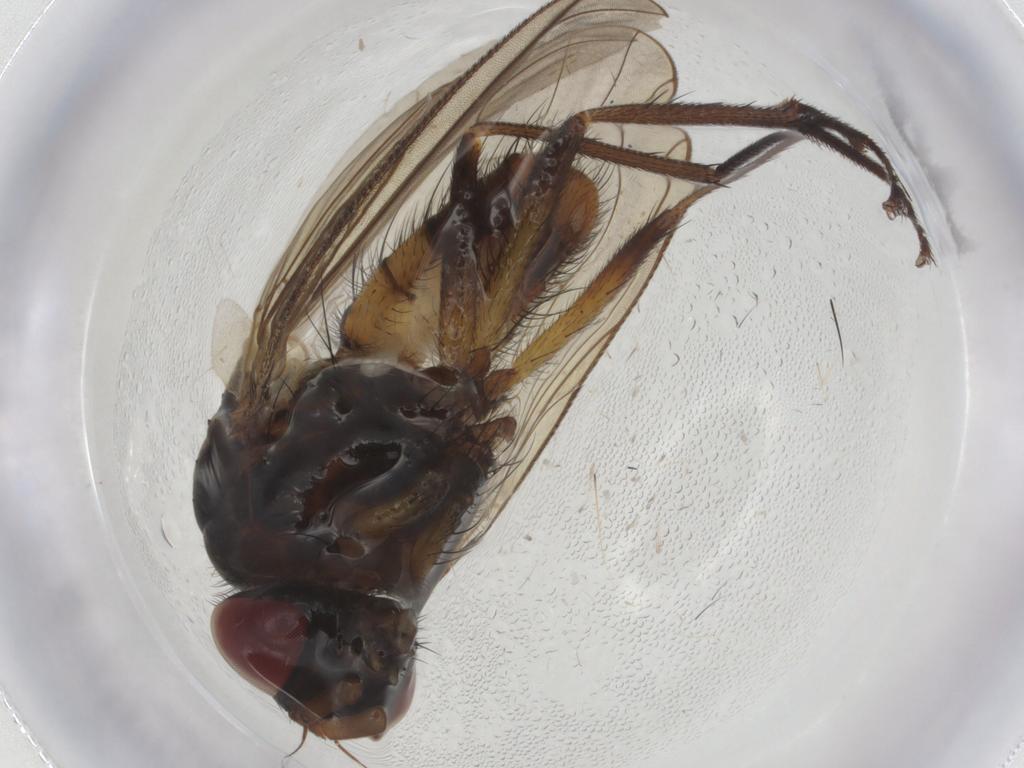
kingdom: Animalia
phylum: Arthropoda
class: Insecta
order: Diptera
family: Anthomyiidae
